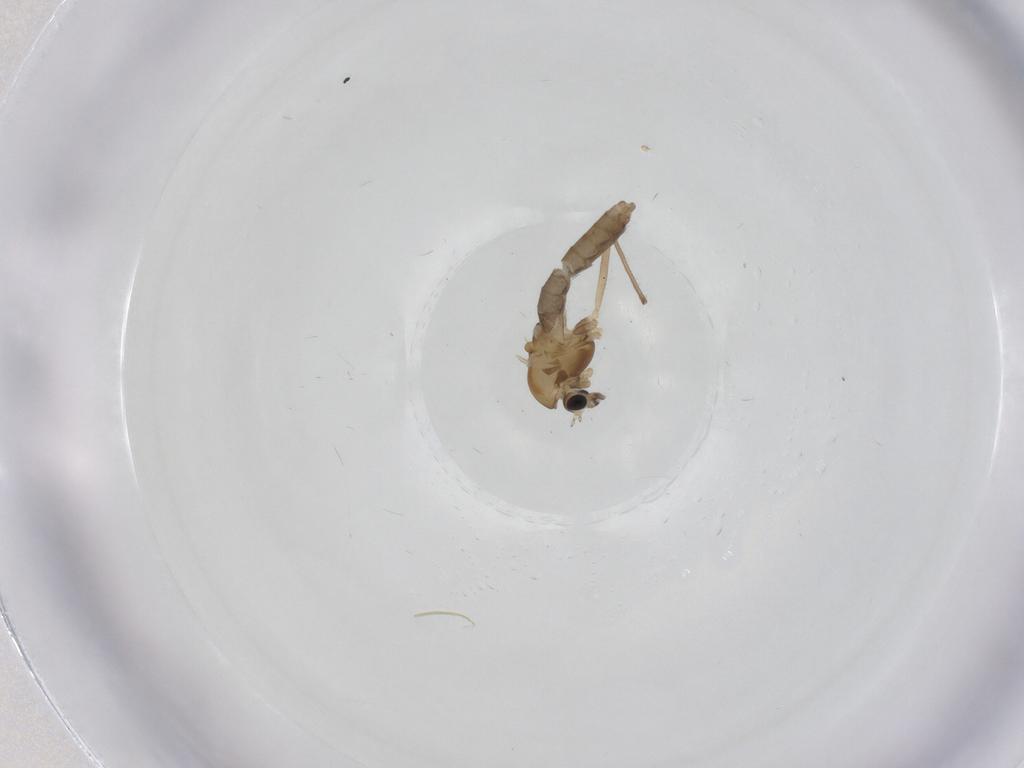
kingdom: Animalia
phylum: Arthropoda
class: Insecta
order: Diptera
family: Chironomidae
